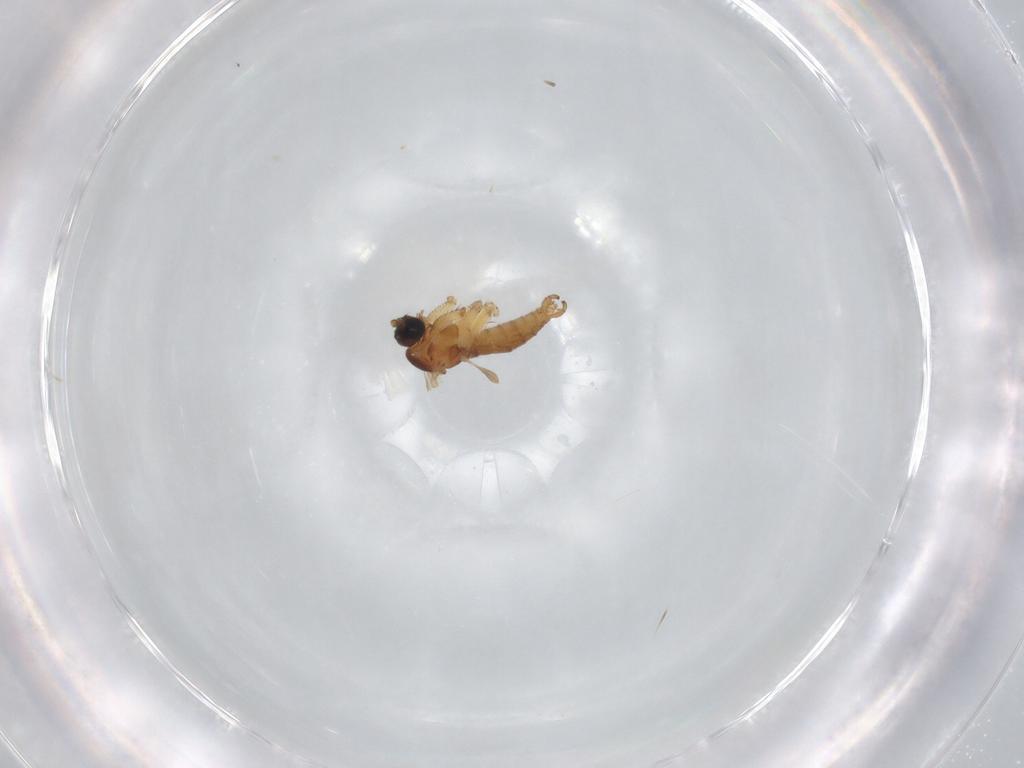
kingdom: Animalia
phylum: Arthropoda
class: Insecta
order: Diptera
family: Sciaridae
